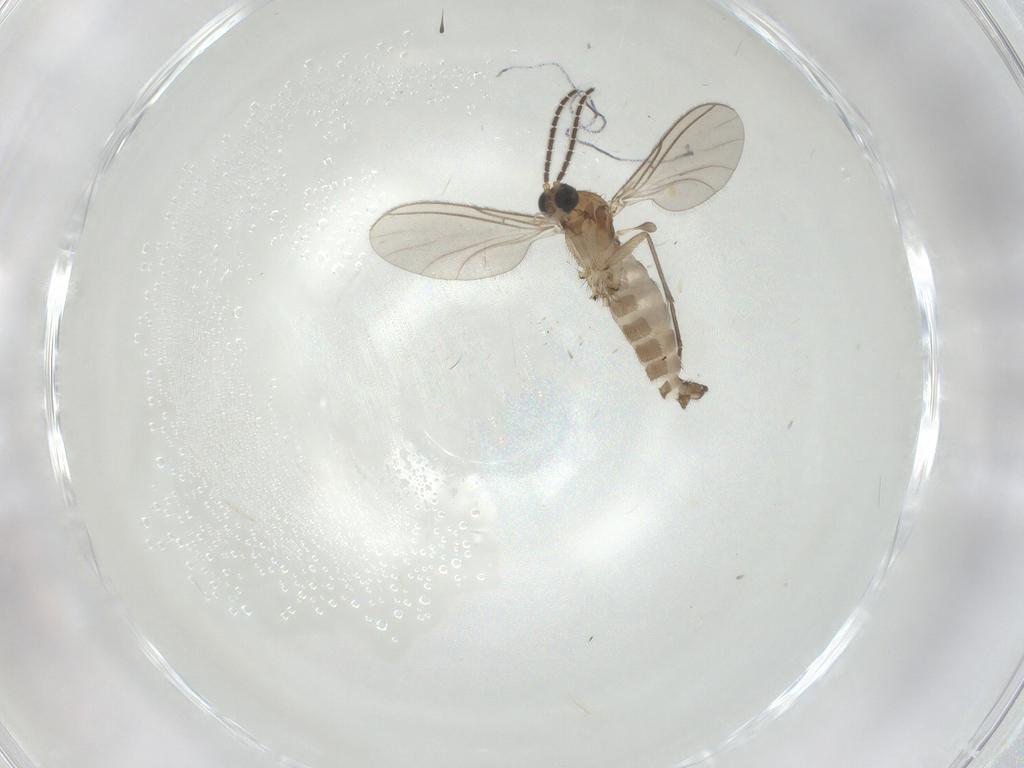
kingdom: Animalia
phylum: Arthropoda
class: Insecta
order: Diptera
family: Sciaridae
